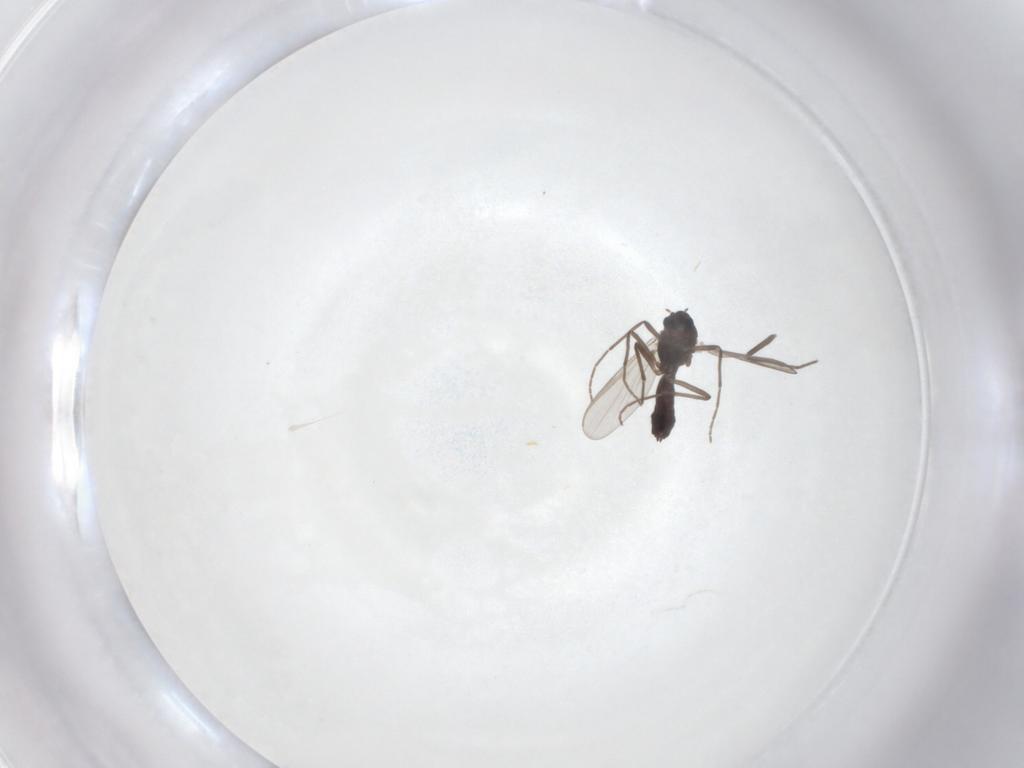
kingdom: Animalia
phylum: Arthropoda
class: Insecta
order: Diptera
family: Chironomidae
